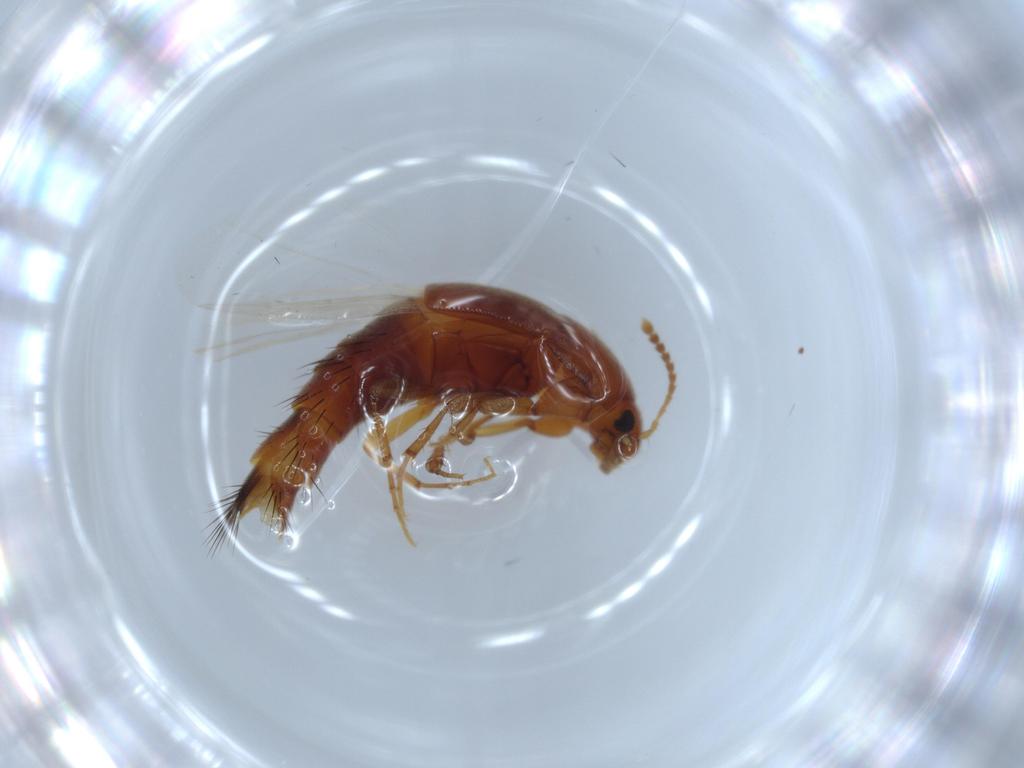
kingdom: Animalia
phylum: Arthropoda
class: Insecta
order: Coleoptera
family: Staphylinidae
